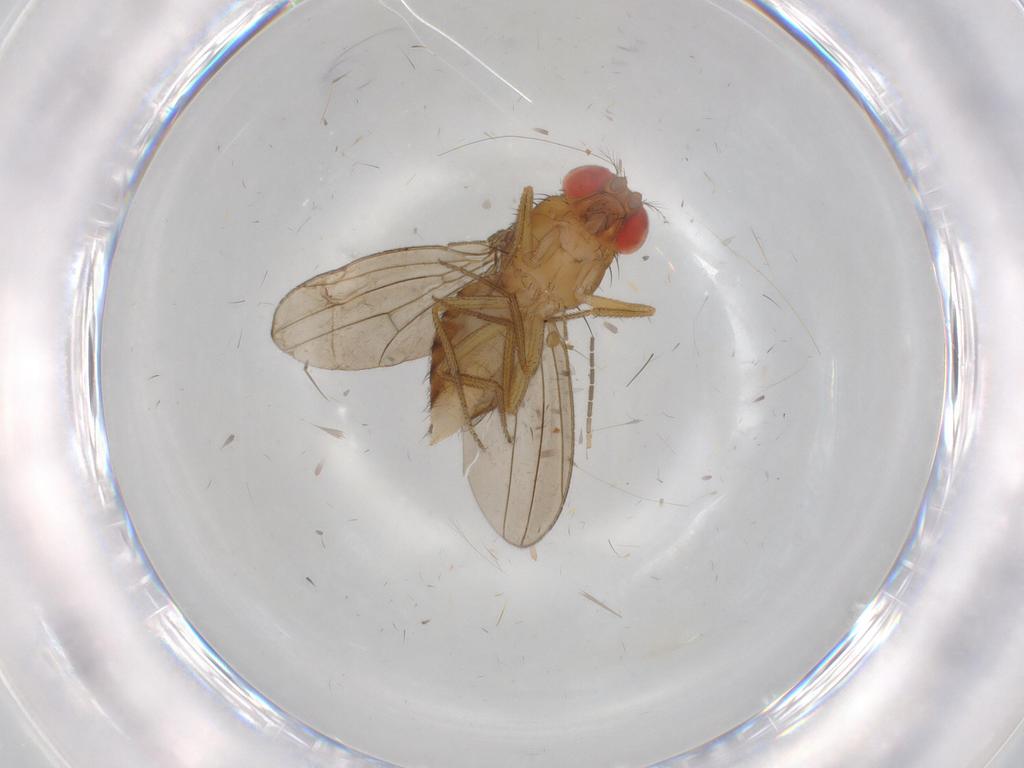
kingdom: Animalia
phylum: Arthropoda
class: Insecta
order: Diptera
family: Drosophilidae
